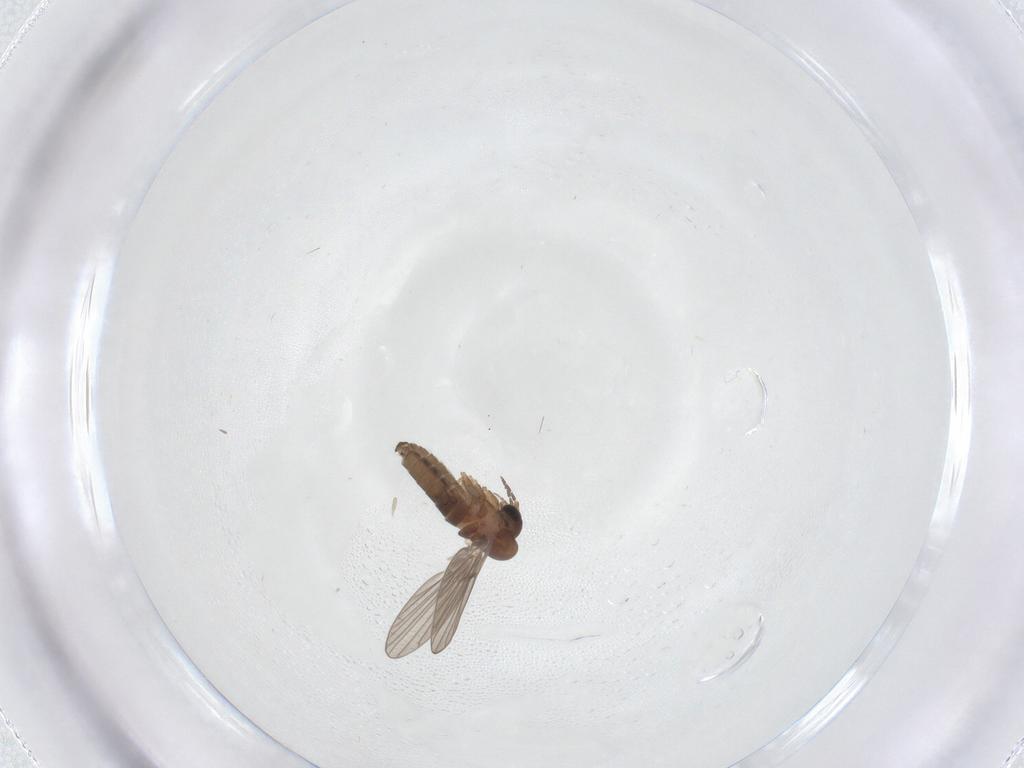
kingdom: Animalia
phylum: Arthropoda
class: Insecta
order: Diptera
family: Psychodidae
